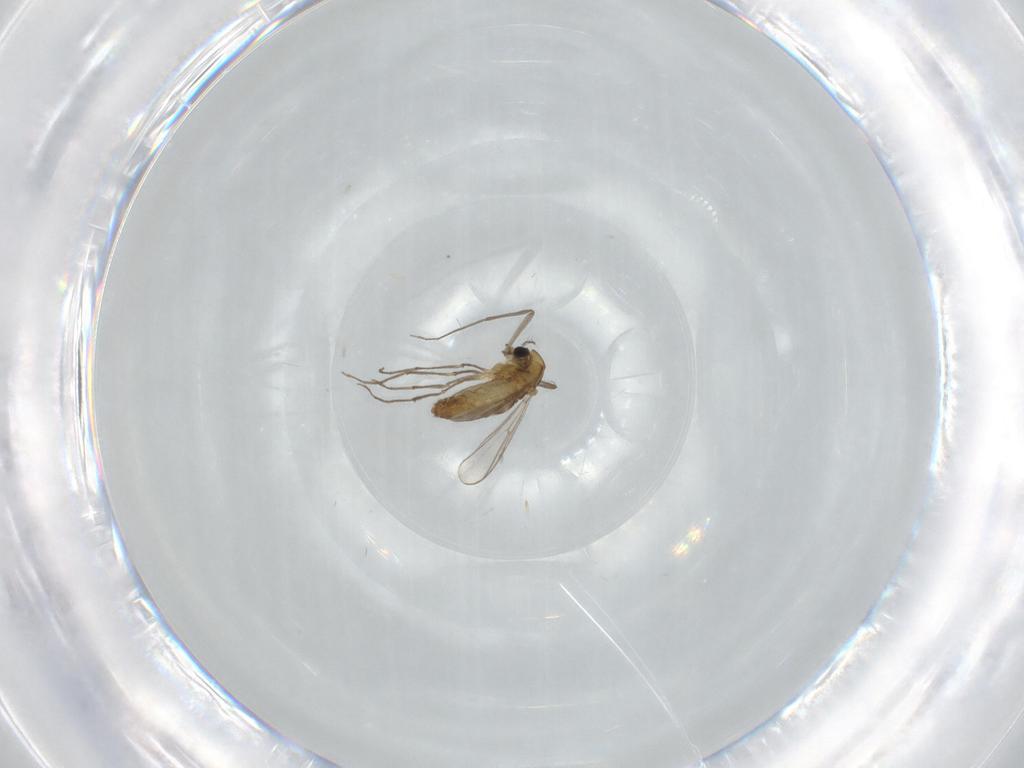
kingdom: Animalia
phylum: Arthropoda
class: Insecta
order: Diptera
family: Chironomidae
